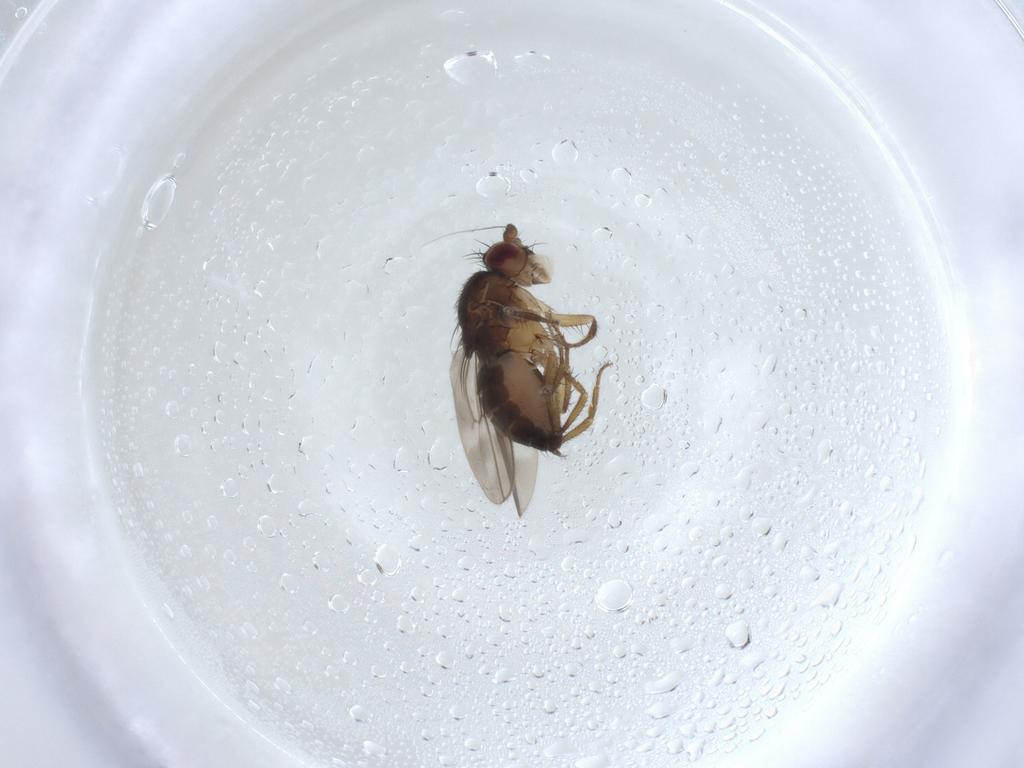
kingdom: Animalia
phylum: Arthropoda
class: Insecta
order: Diptera
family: Sphaeroceridae
